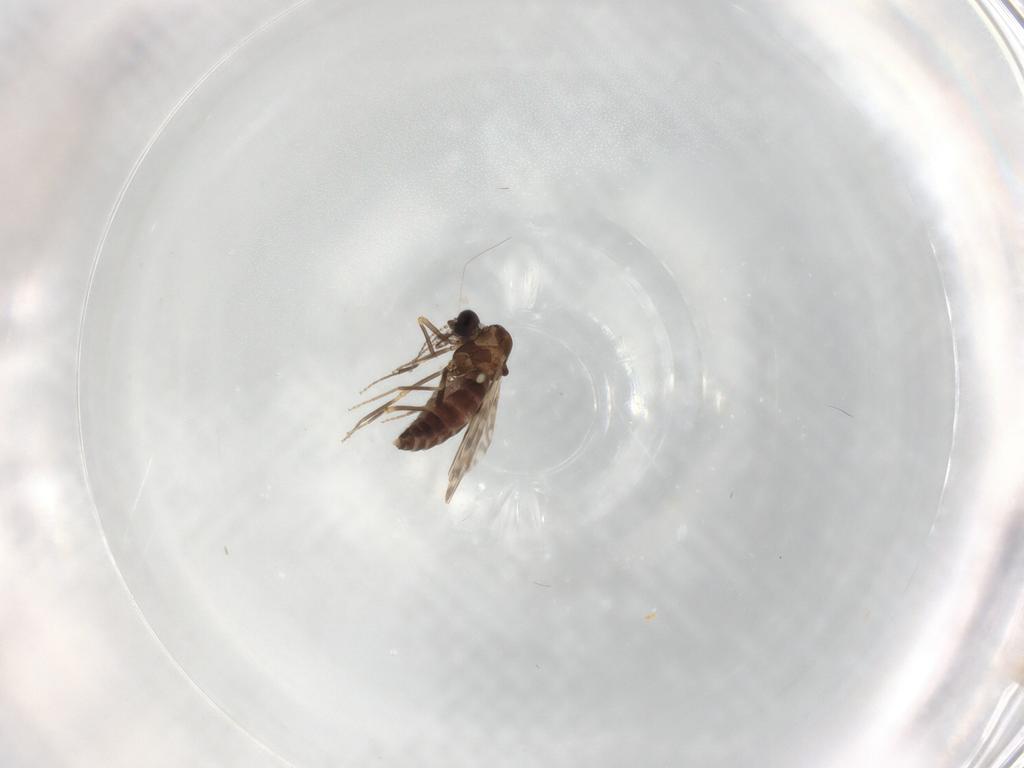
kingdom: Animalia
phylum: Arthropoda
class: Insecta
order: Diptera
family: Ceratopogonidae
